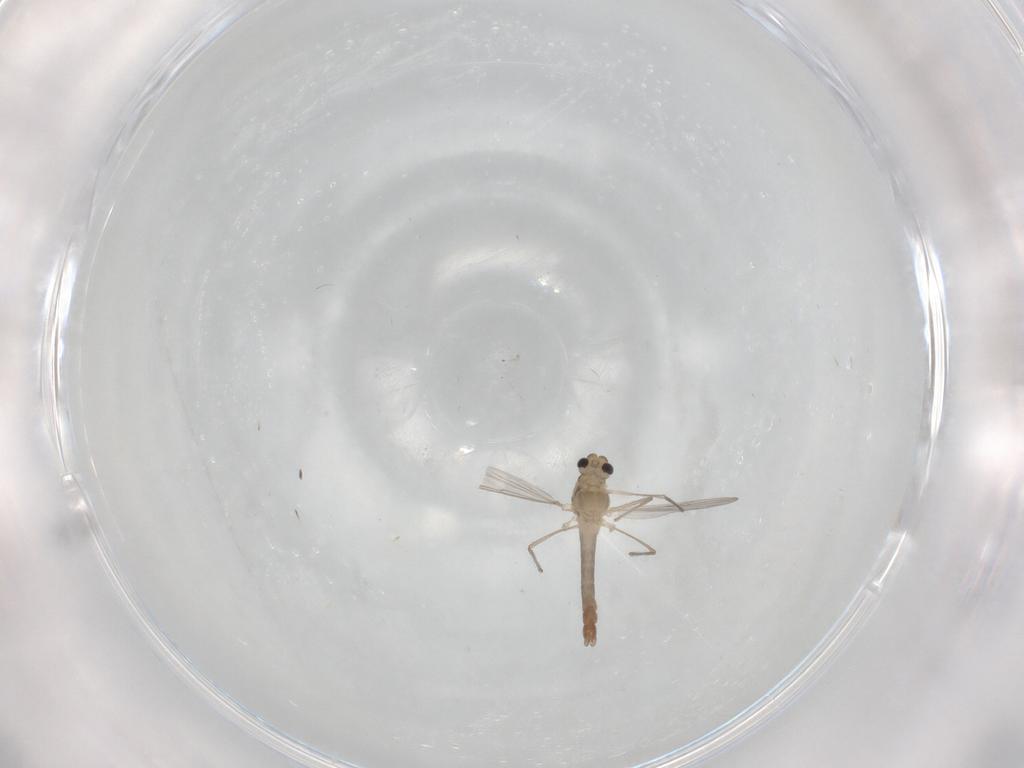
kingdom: Animalia
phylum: Arthropoda
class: Insecta
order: Diptera
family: Chironomidae
